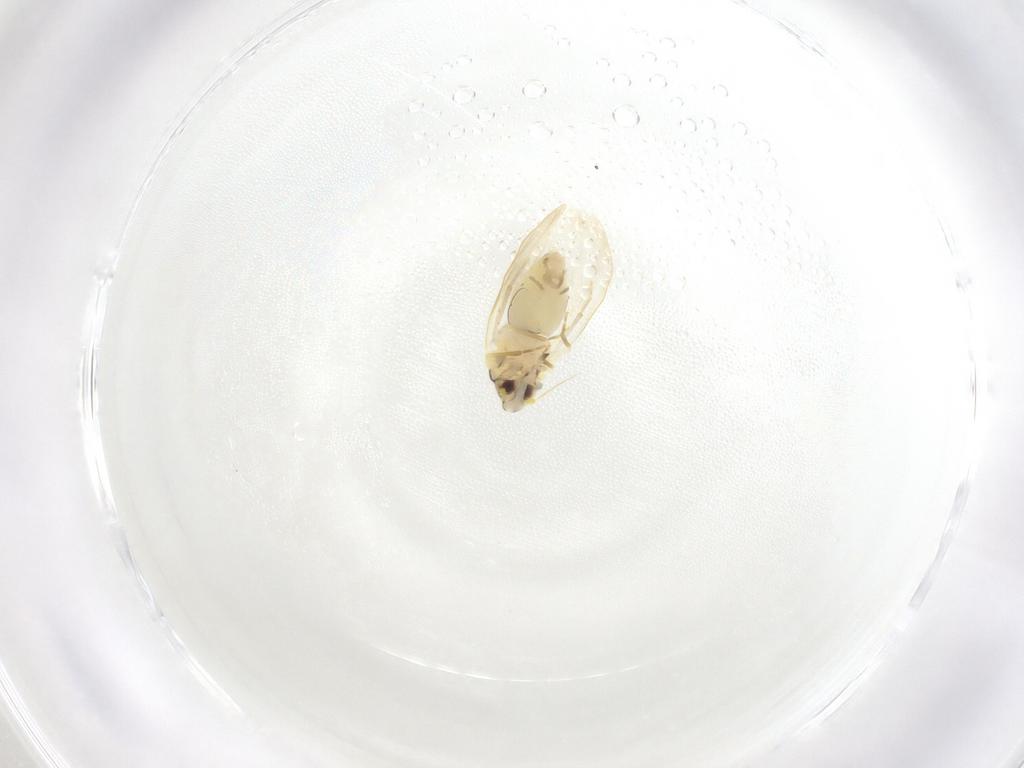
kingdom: Animalia
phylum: Arthropoda
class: Insecta
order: Hemiptera
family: Aleyrodidae
